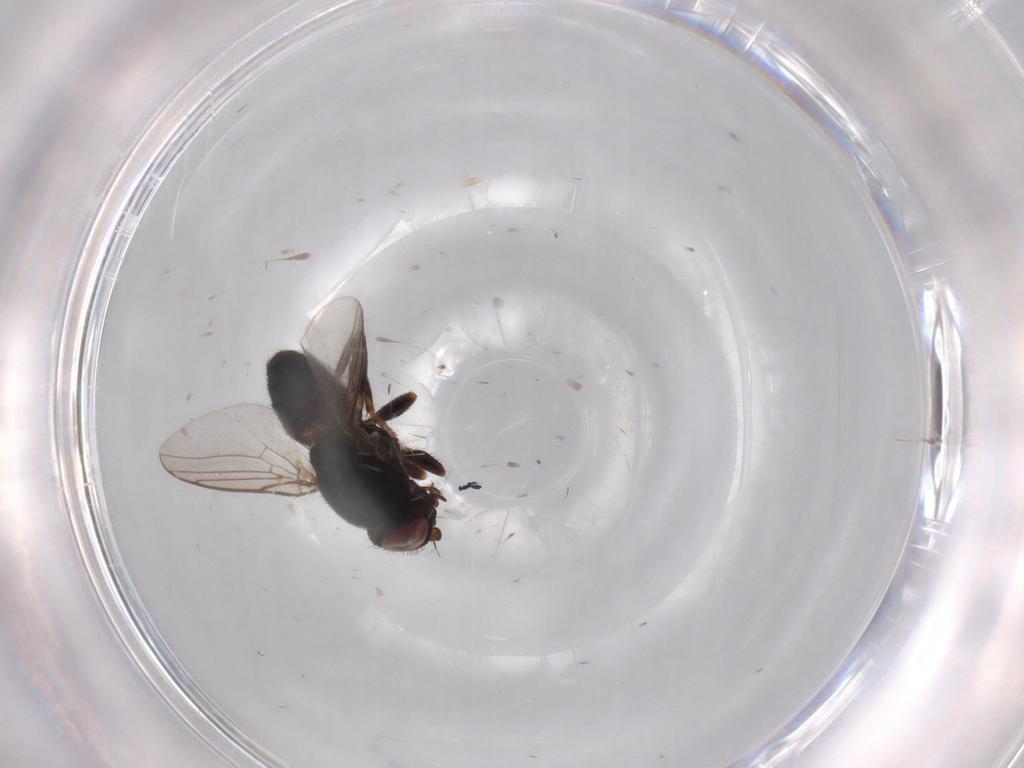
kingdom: Animalia
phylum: Arthropoda
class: Insecta
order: Diptera
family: Chloropidae
